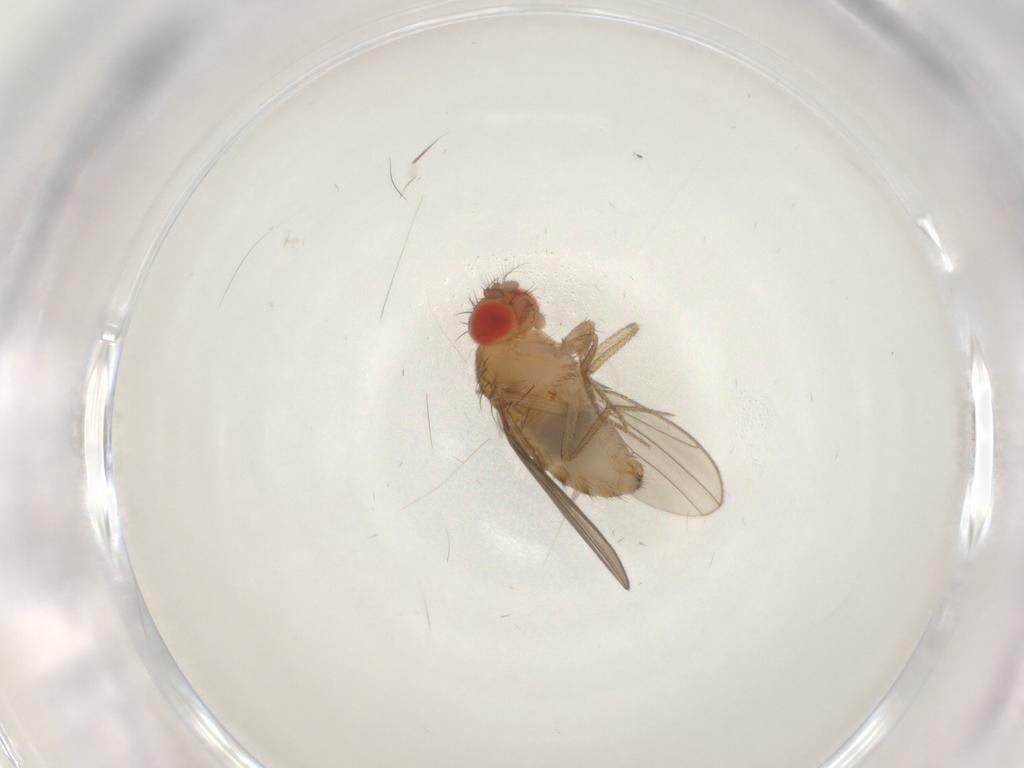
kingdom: Animalia
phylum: Arthropoda
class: Insecta
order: Diptera
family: Drosophilidae
